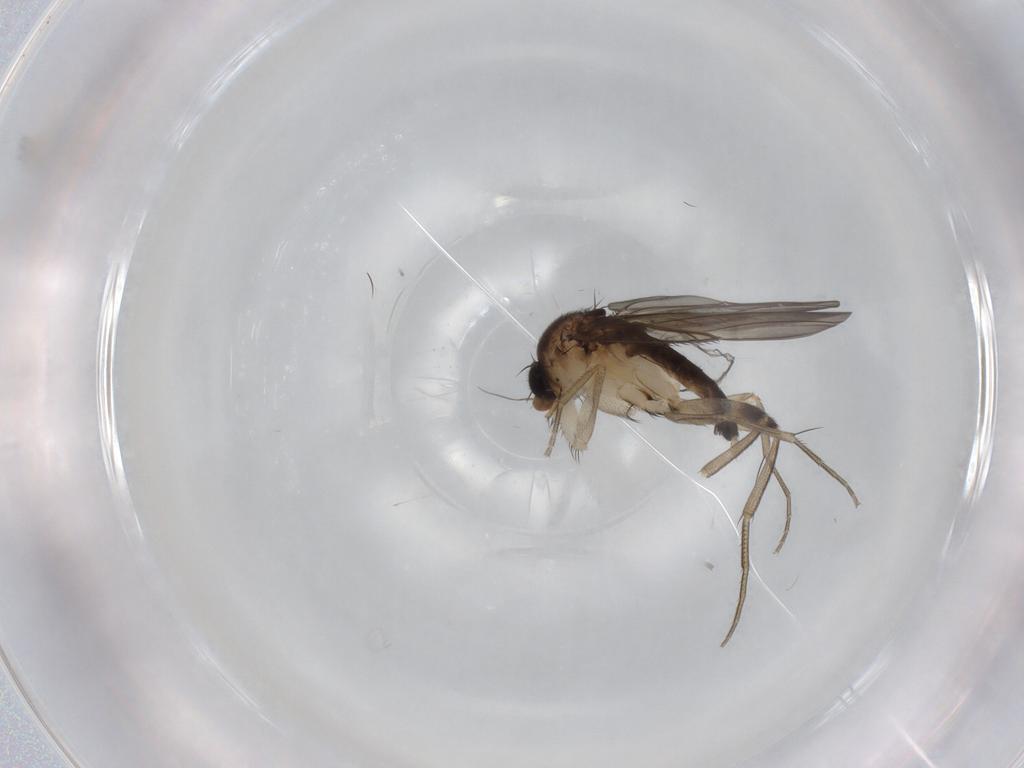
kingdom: Animalia
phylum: Arthropoda
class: Insecta
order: Diptera
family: Phoridae
